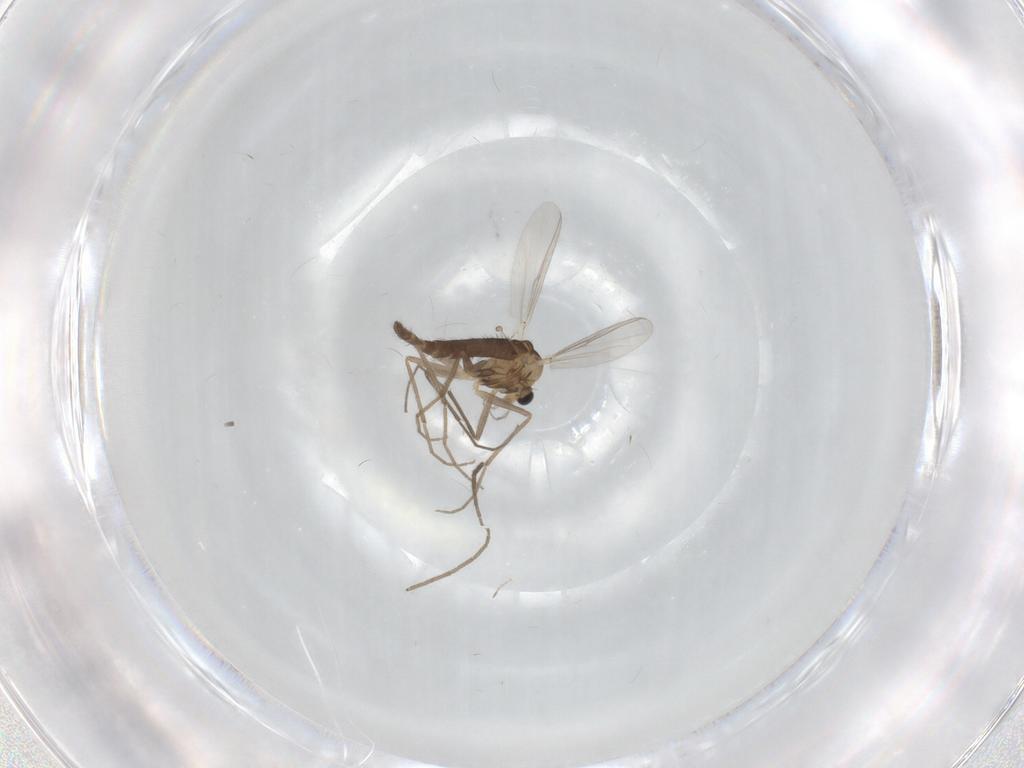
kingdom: Animalia
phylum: Arthropoda
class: Insecta
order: Diptera
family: Chironomidae
